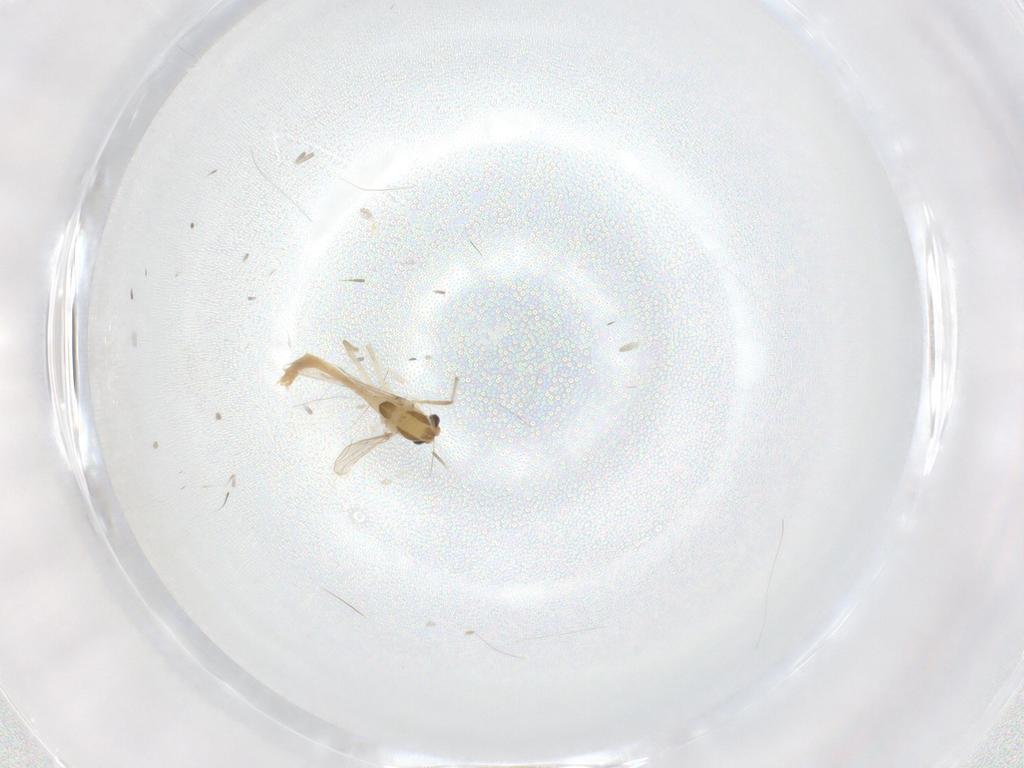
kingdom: Animalia
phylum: Arthropoda
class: Insecta
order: Diptera
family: Chironomidae
